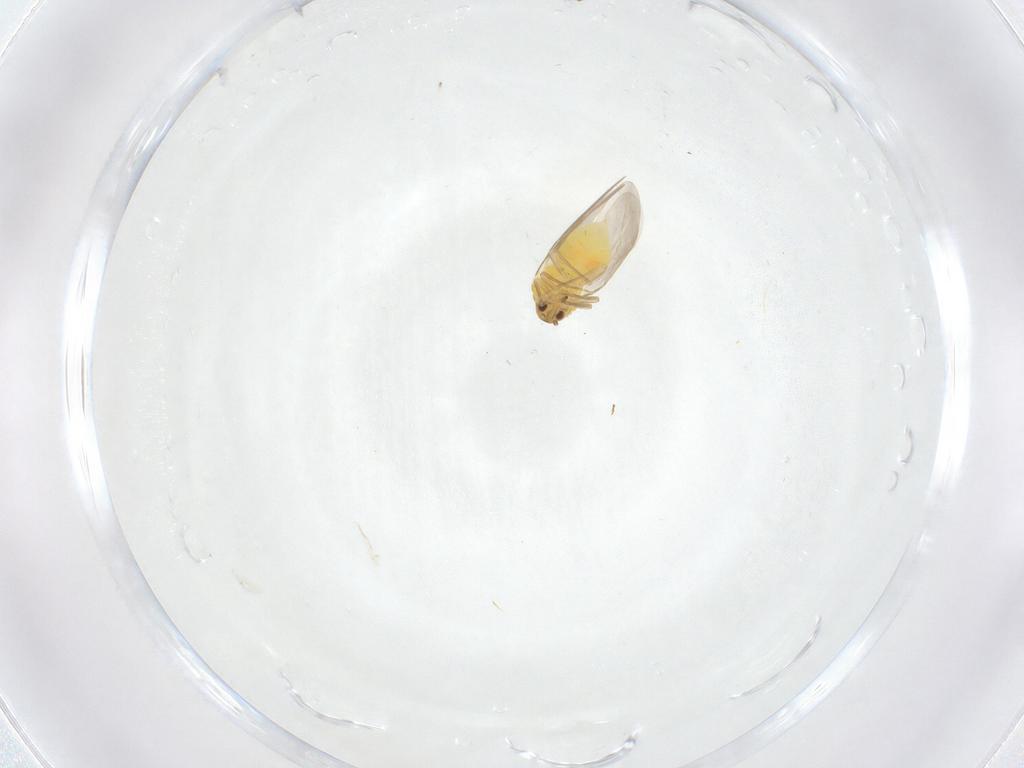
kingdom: Animalia
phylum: Arthropoda
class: Insecta
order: Hemiptera
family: Aleyrodidae
